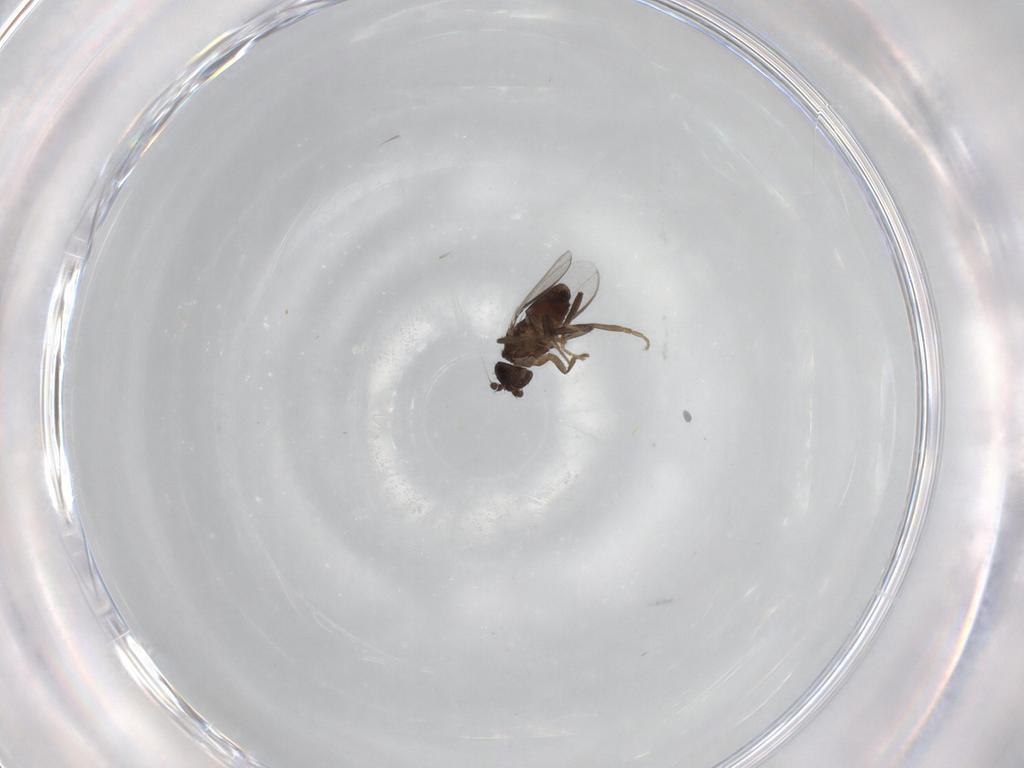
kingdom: Animalia
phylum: Arthropoda
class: Insecta
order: Diptera
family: Sphaeroceridae
